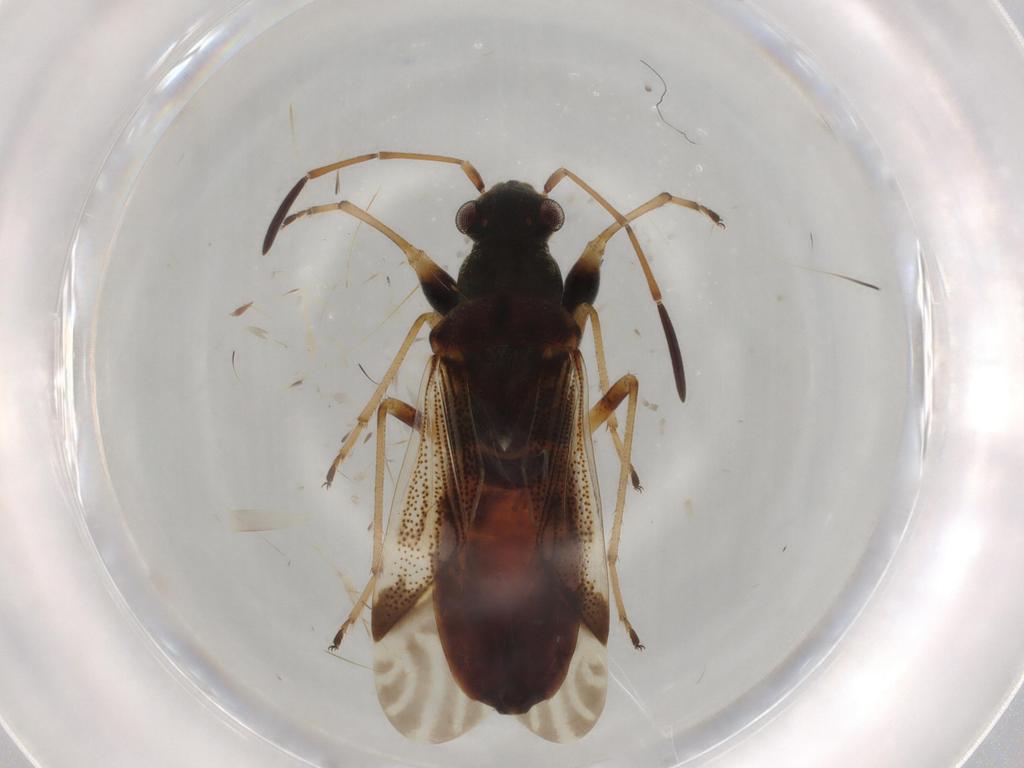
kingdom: Animalia
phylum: Arthropoda
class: Insecta
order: Hemiptera
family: Rhyparochromidae
